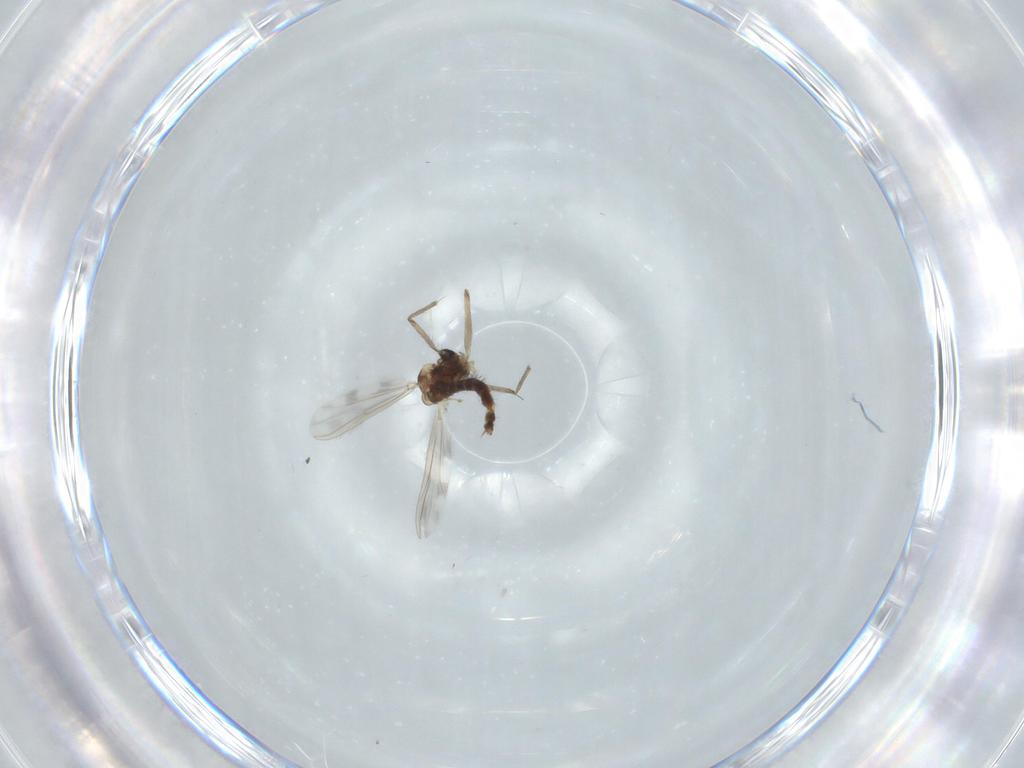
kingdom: Animalia
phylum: Arthropoda
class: Insecta
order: Diptera
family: Chironomidae
